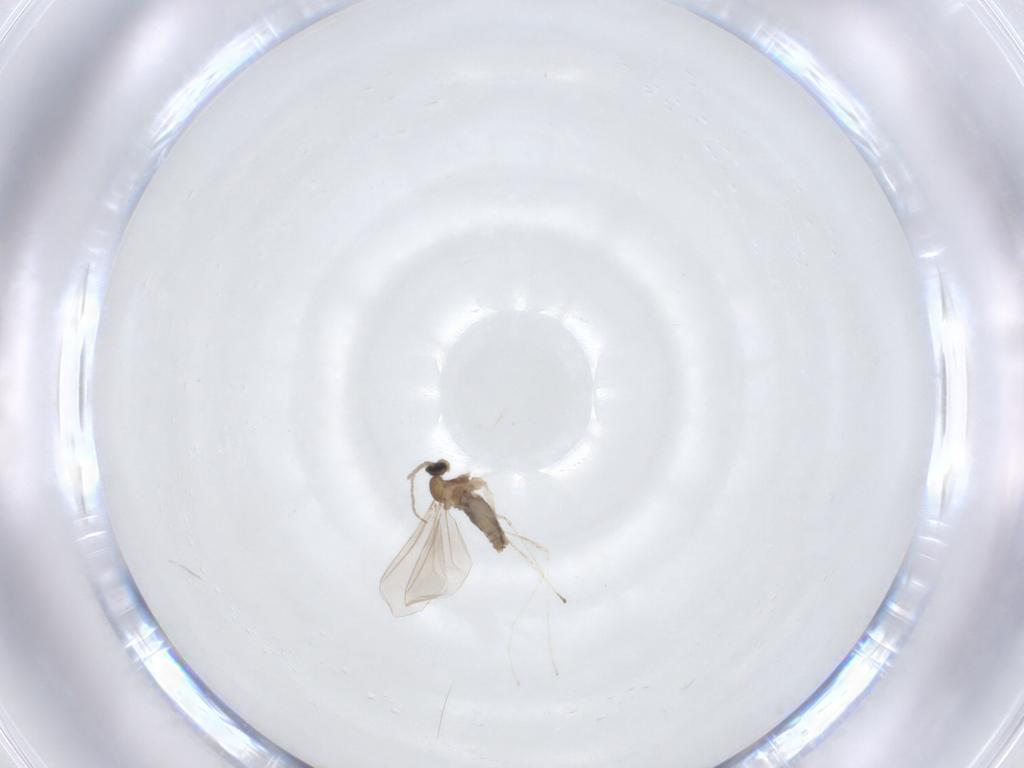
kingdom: Animalia
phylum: Arthropoda
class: Insecta
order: Diptera
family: Cecidomyiidae
